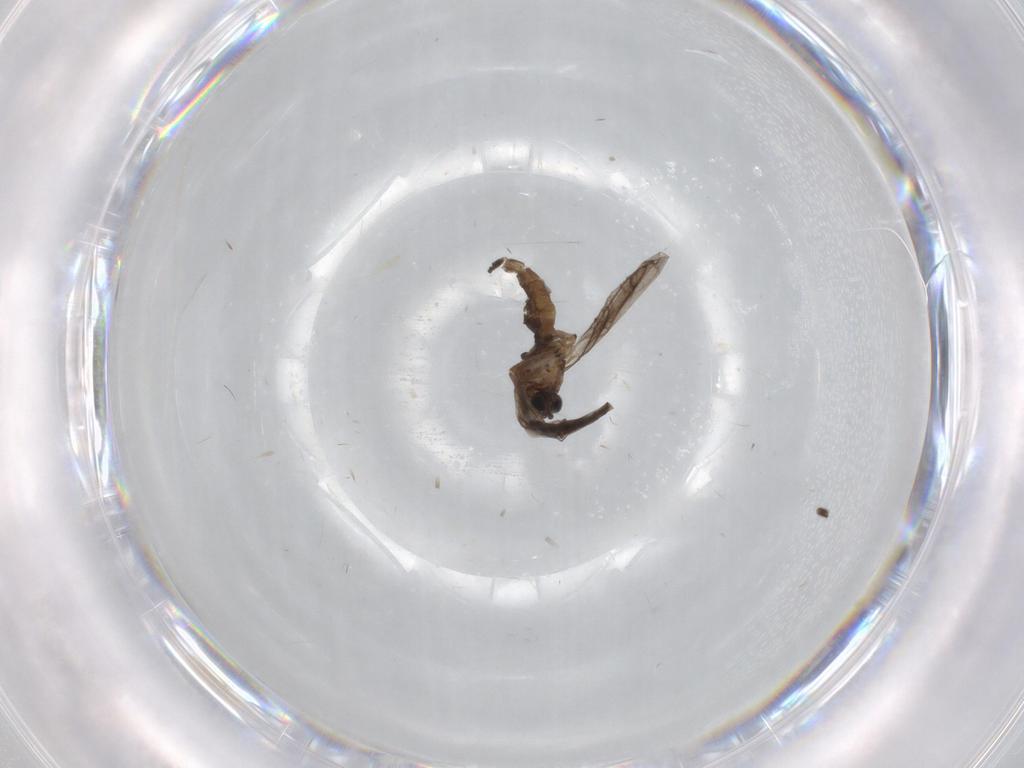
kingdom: Animalia
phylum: Arthropoda
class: Insecta
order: Diptera
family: Sciaridae
